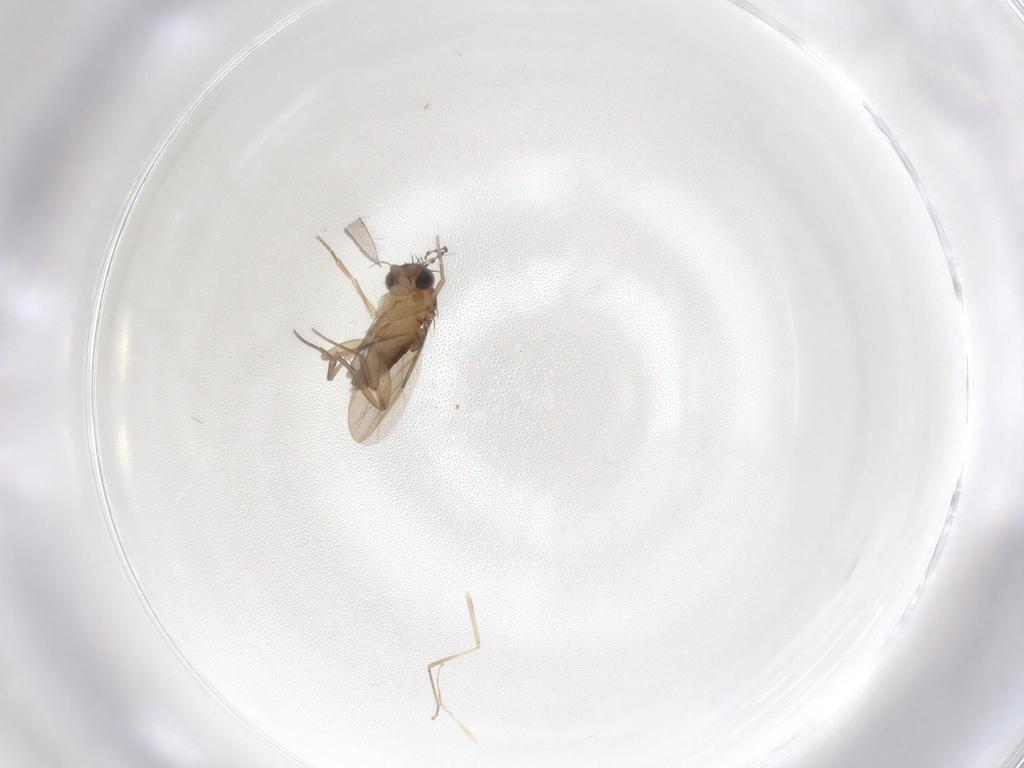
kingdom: Animalia
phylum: Arthropoda
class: Insecta
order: Diptera
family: Phoridae
